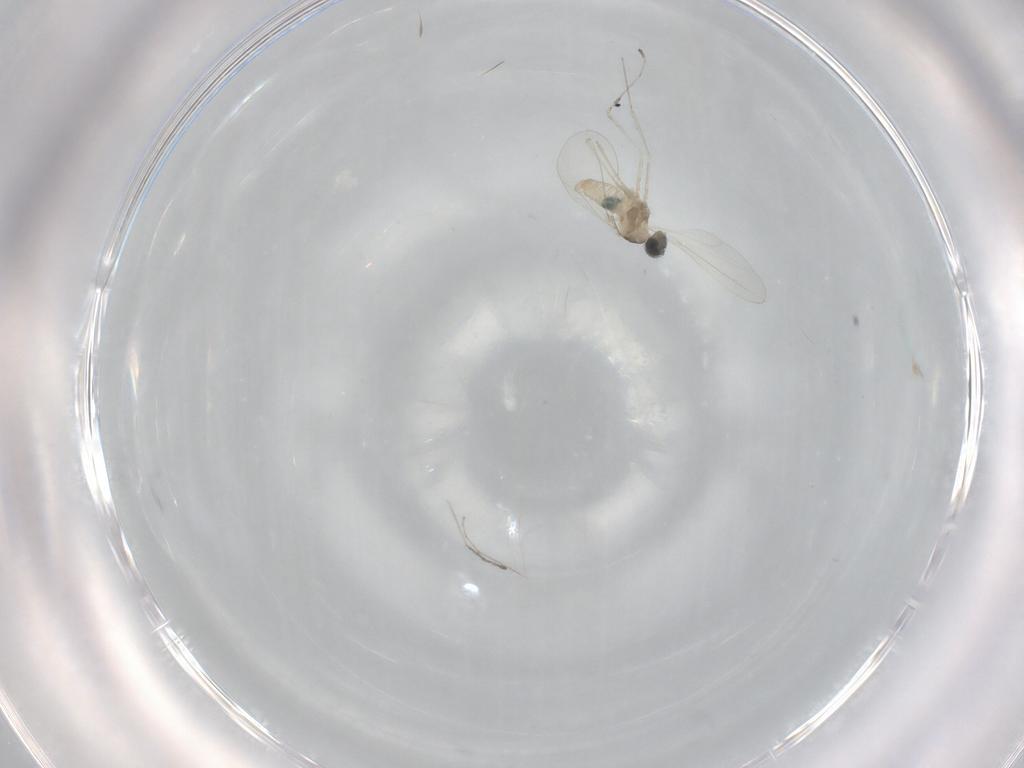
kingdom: Animalia
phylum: Arthropoda
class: Insecta
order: Diptera
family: Cecidomyiidae
